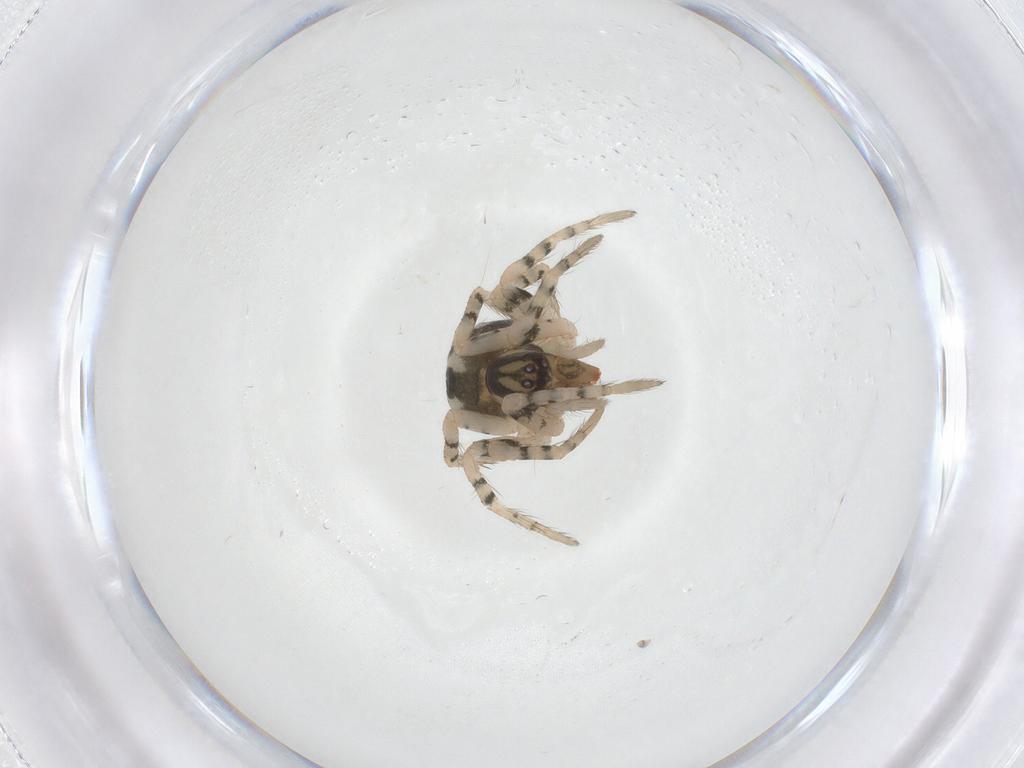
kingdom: Animalia
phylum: Arthropoda
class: Arachnida
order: Araneae
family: Sparassidae
